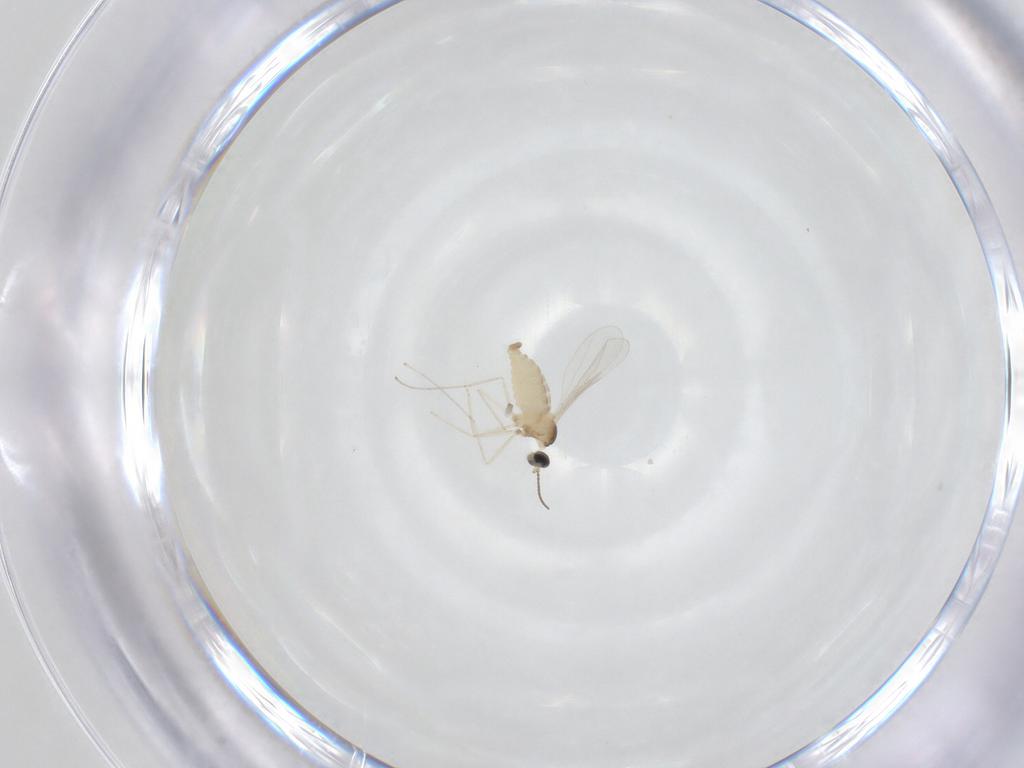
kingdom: Animalia
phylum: Arthropoda
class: Insecta
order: Diptera
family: Cecidomyiidae
